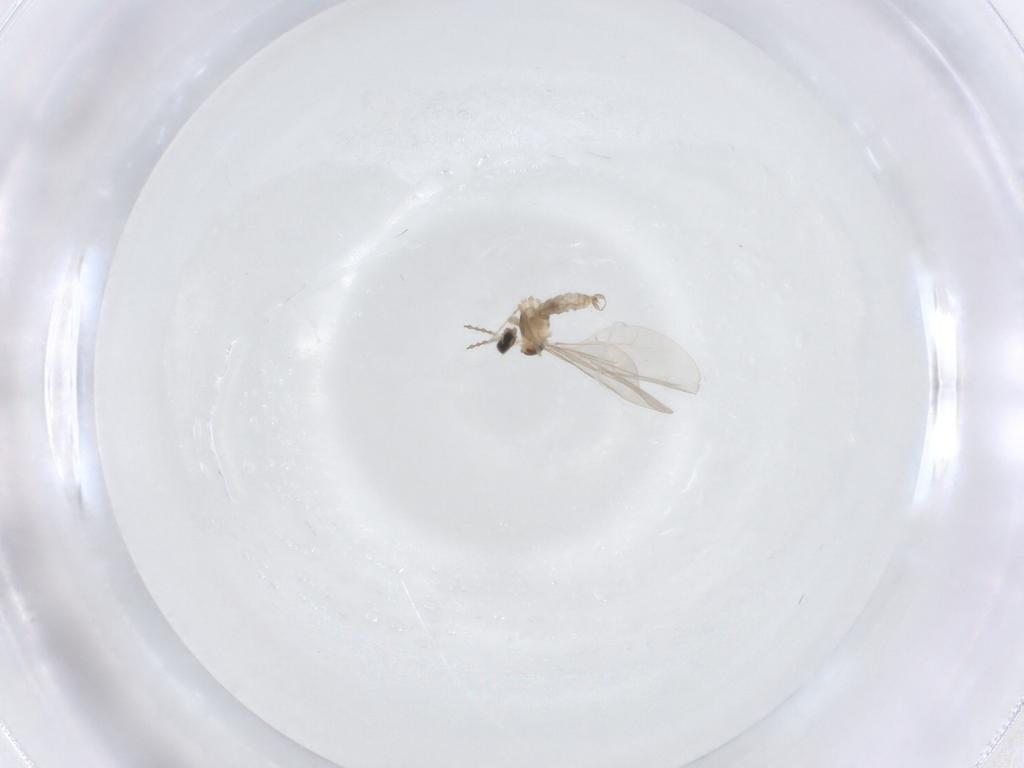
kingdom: Animalia
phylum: Arthropoda
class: Insecta
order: Diptera
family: Cecidomyiidae
